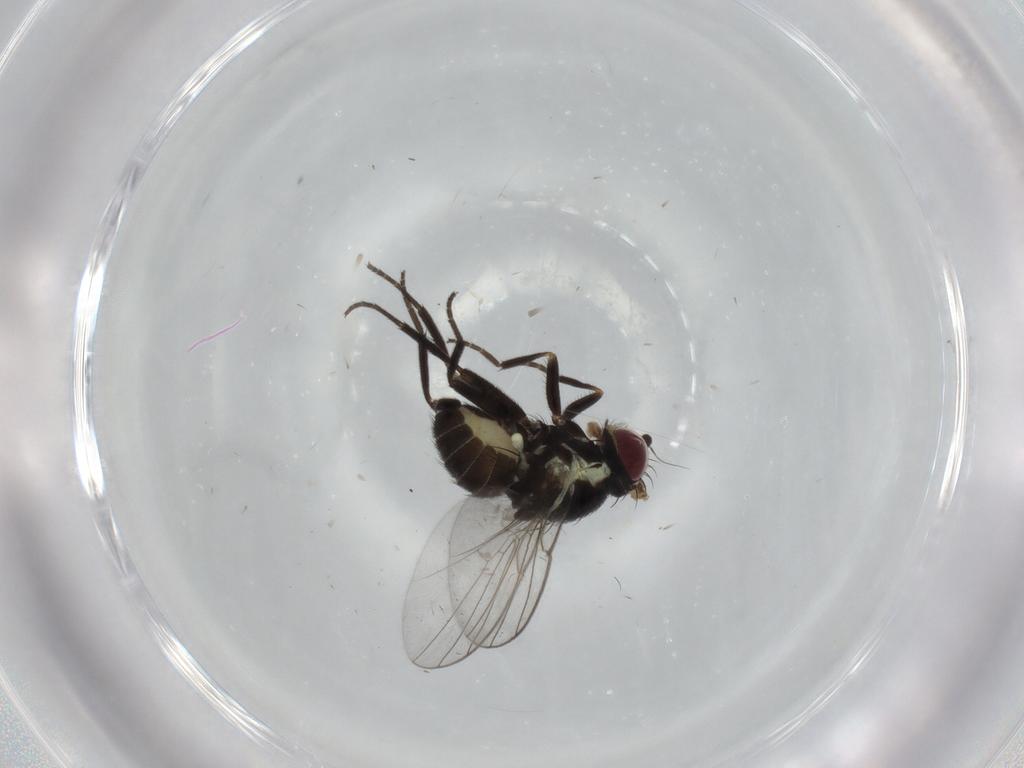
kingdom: Animalia
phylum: Arthropoda
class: Insecta
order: Diptera
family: Agromyzidae
